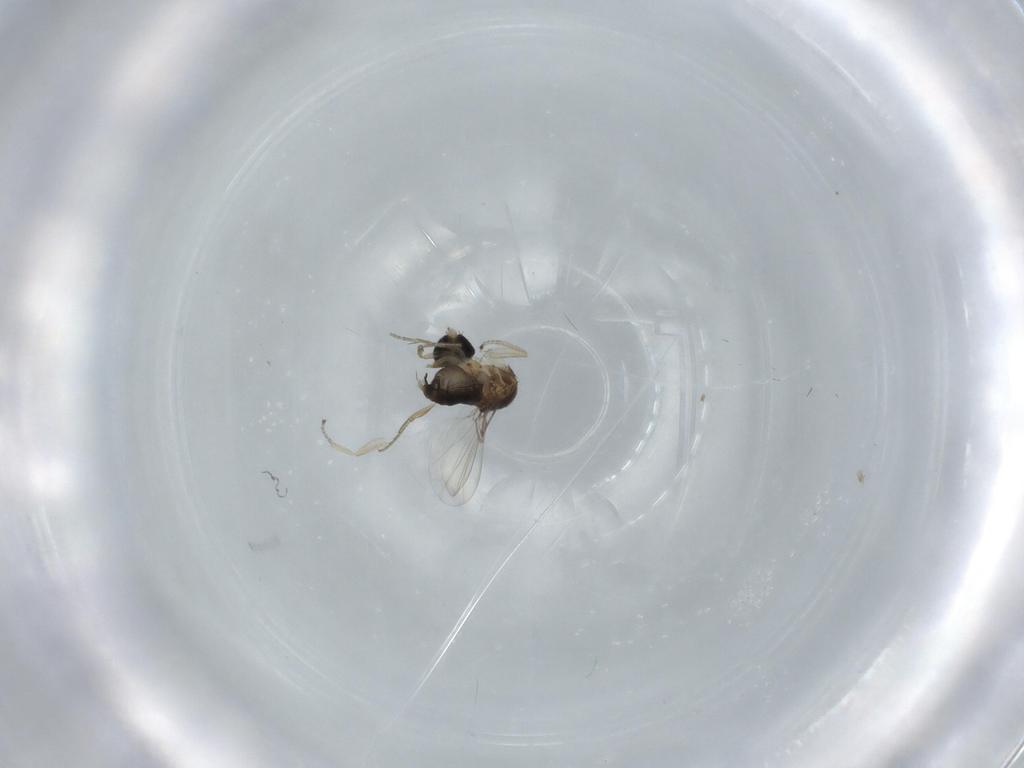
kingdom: Animalia
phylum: Arthropoda
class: Insecta
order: Diptera
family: Phoridae
